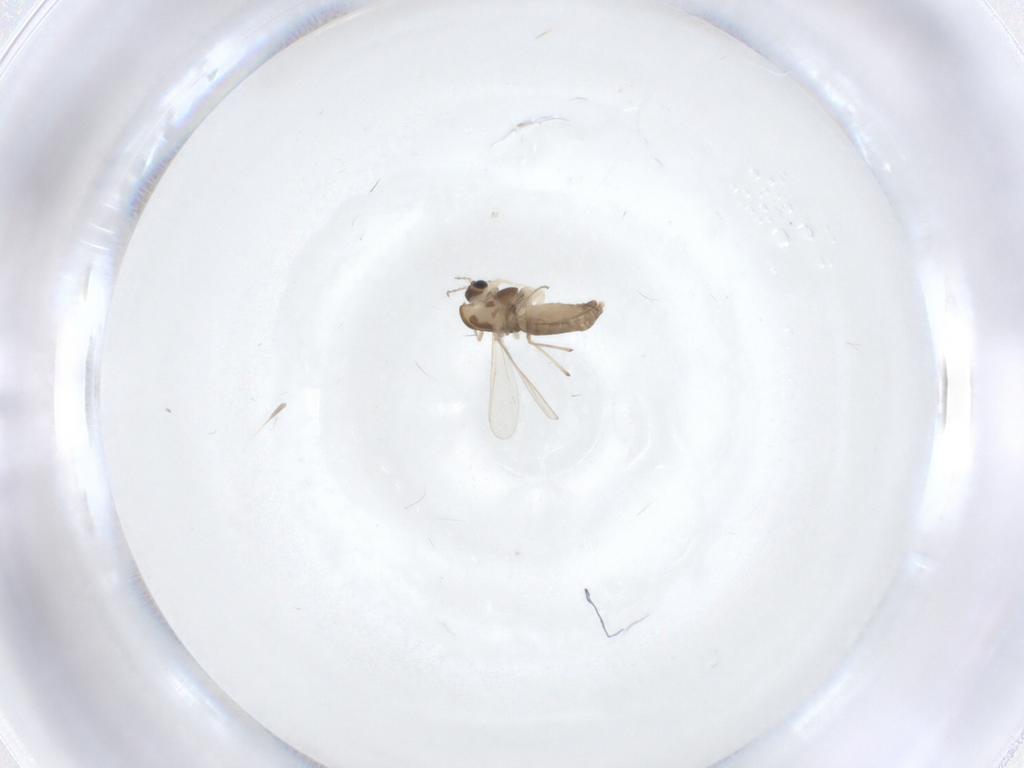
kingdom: Animalia
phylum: Arthropoda
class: Insecta
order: Diptera
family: Chironomidae
